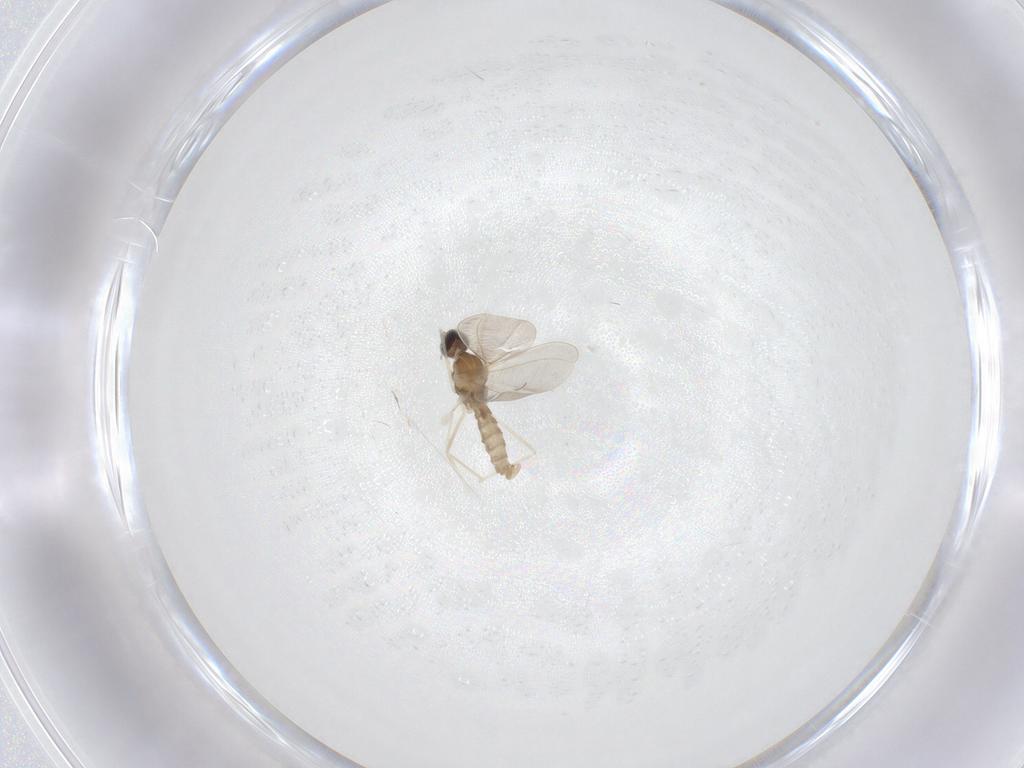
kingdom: Animalia
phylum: Arthropoda
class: Insecta
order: Diptera
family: Cecidomyiidae
